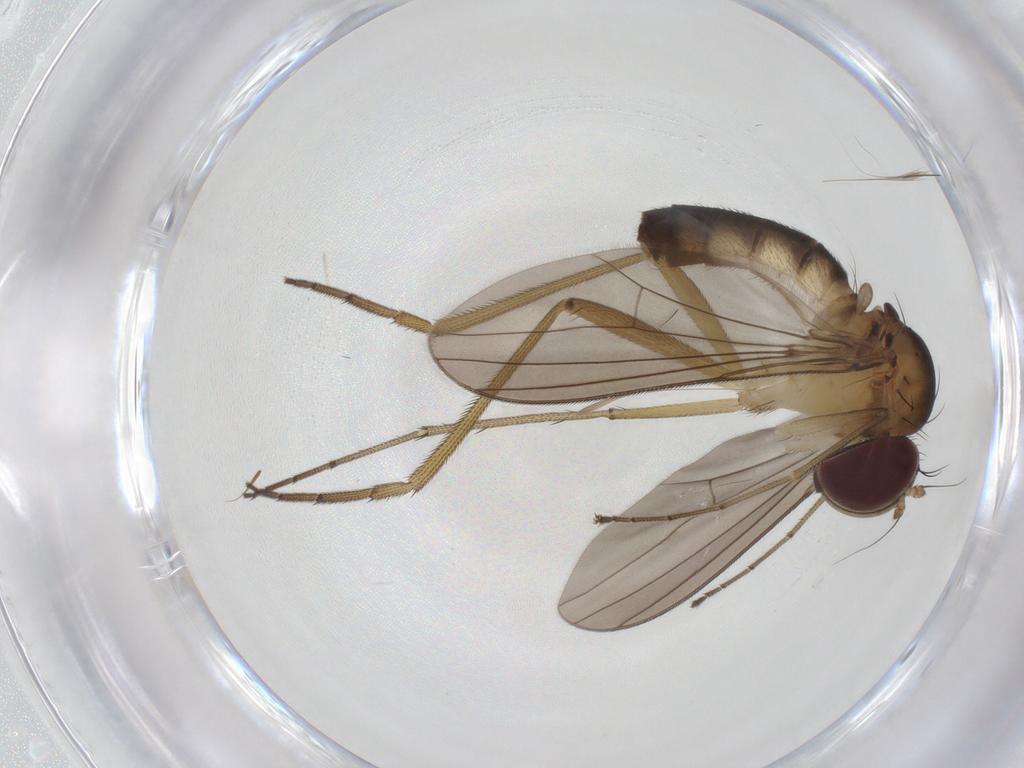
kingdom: Animalia
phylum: Arthropoda
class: Insecta
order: Diptera
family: Dolichopodidae
